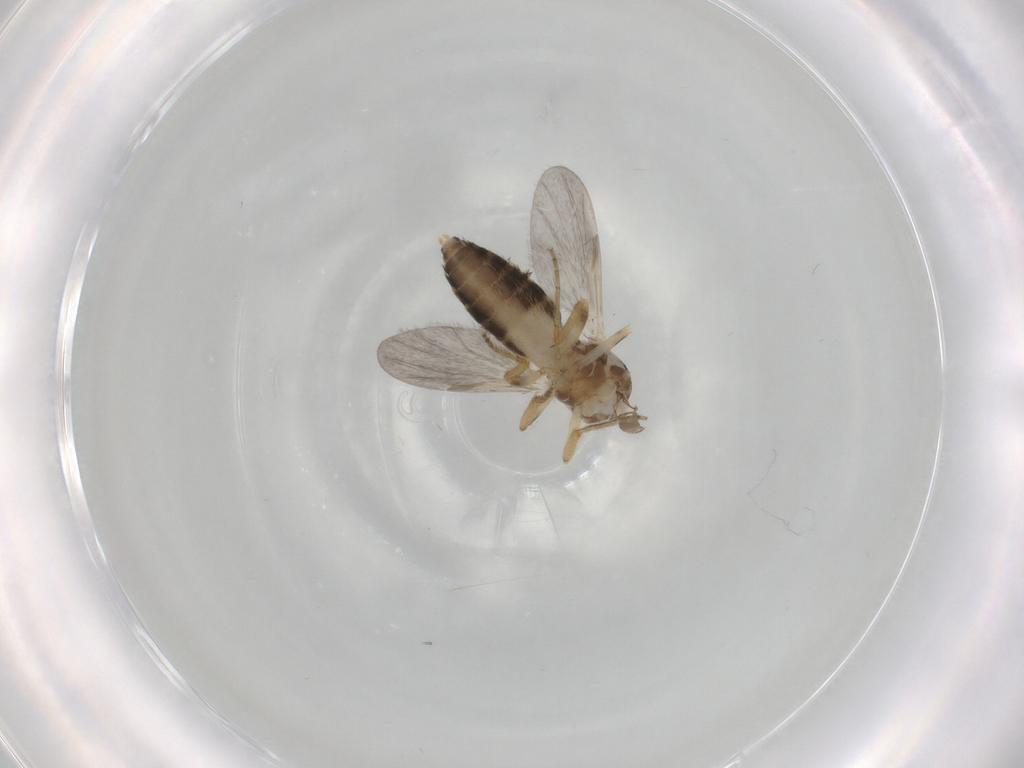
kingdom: Animalia
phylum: Arthropoda
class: Insecta
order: Diptera
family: Ceratopogonidae
